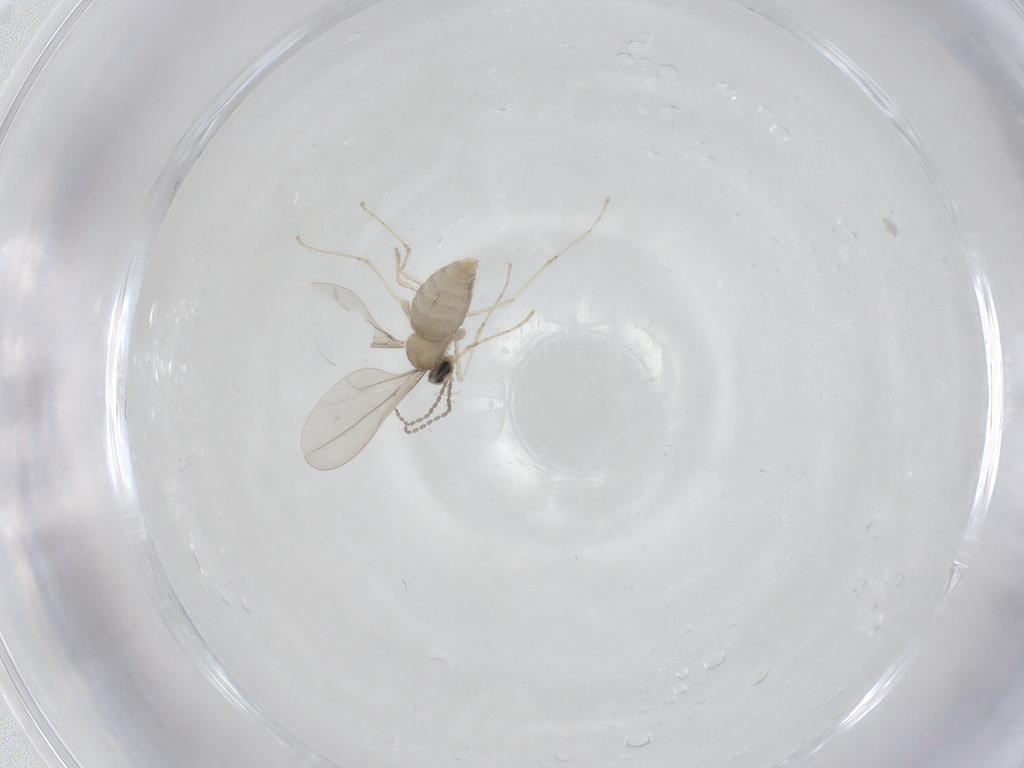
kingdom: Animalia
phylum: Arthropoda
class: Insecta
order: Diptera
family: Cecidomyiidae
